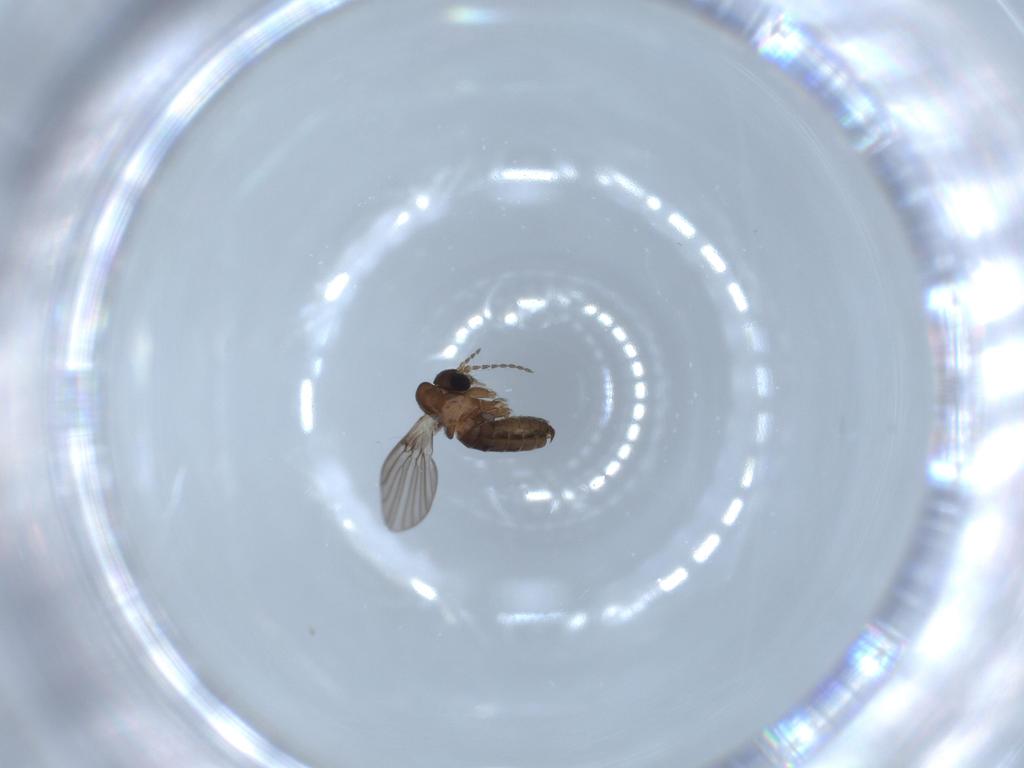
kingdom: Animalia
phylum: Arthropoda
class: Insecta
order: Diptera
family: Psychodidae
